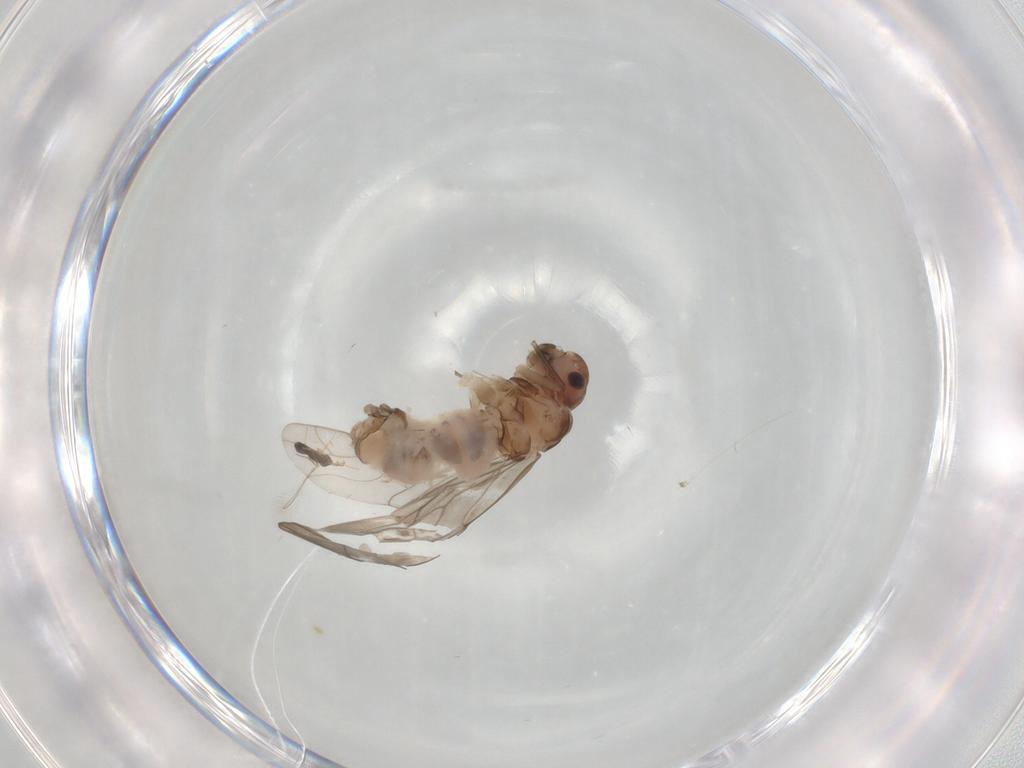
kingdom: Animalia
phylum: Arthropoda
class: Insecta
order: Psocodea
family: Peripsocidae
